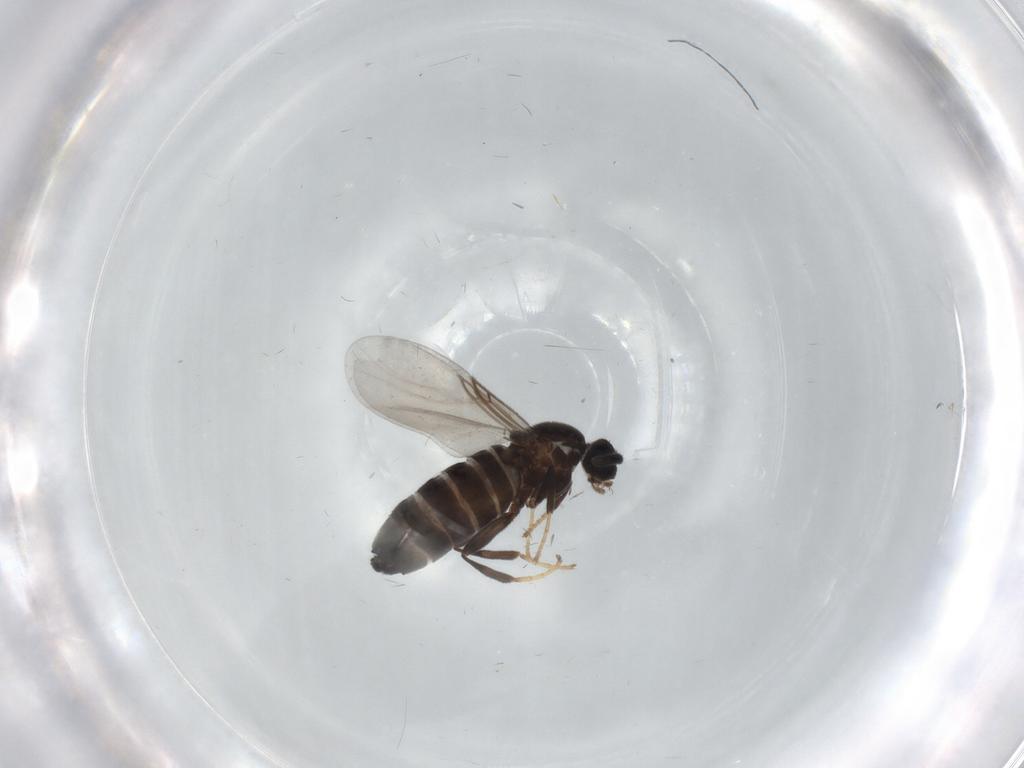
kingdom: Animalia
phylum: Arthropoda
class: Insecta
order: Diptera
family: Scatopsidae
